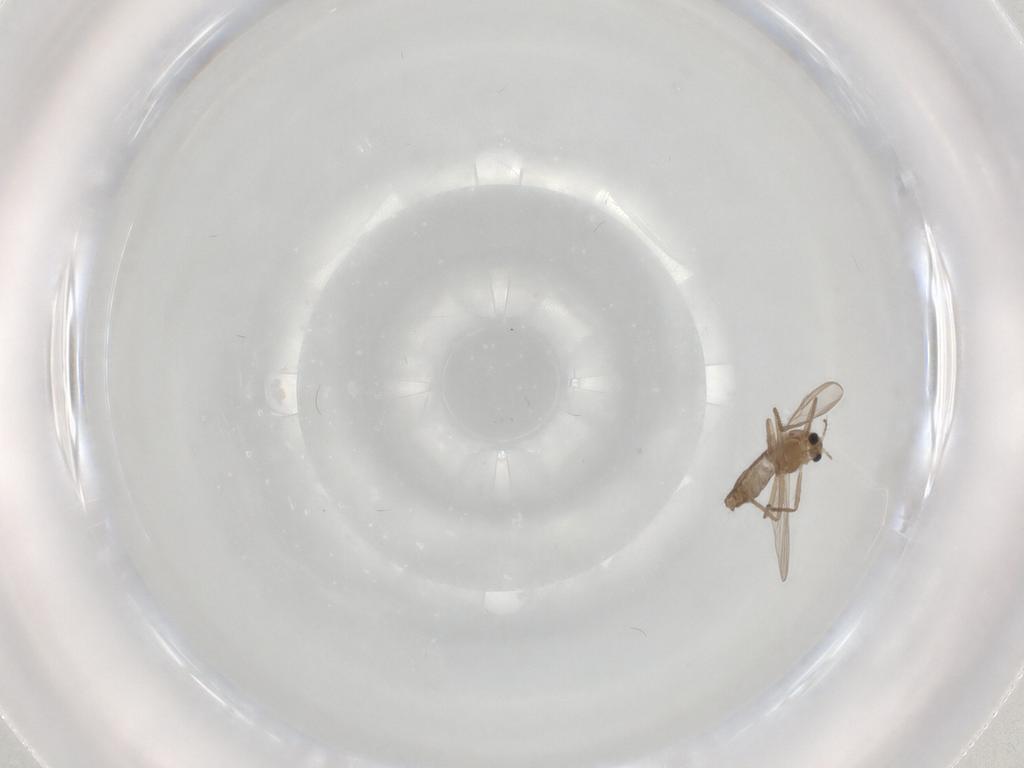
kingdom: Animalia
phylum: Arthropoda
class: Insecta
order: Diptera
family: Chironomidae
